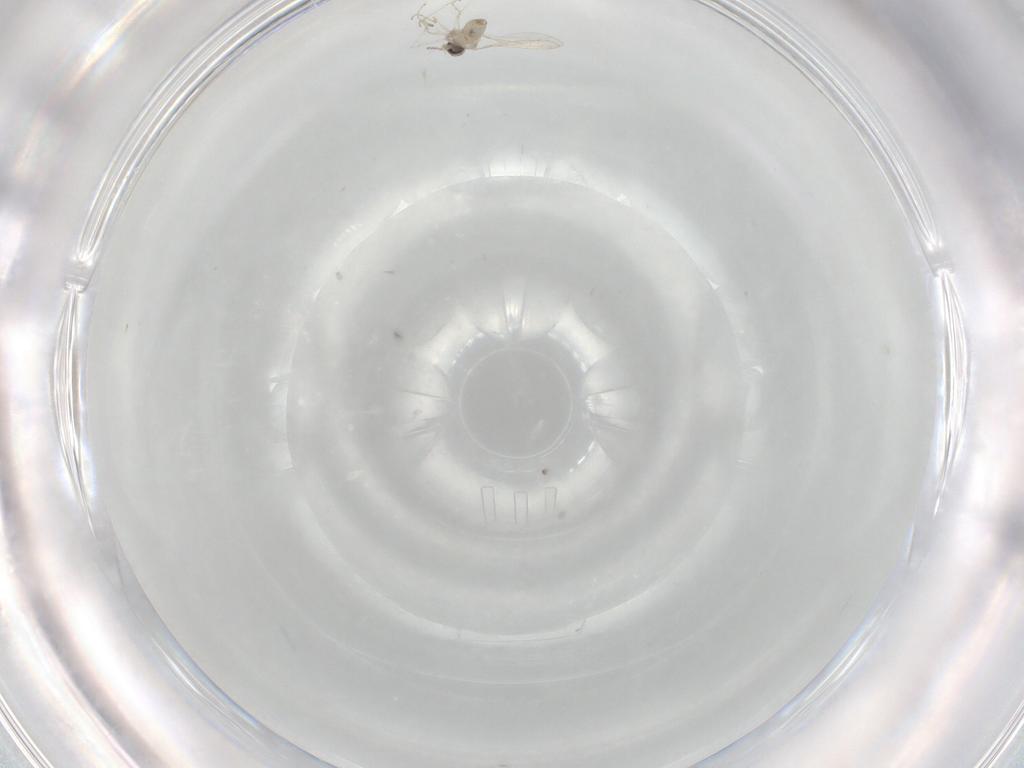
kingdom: Animalia
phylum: Arthropoda
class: Insecta
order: Diptera
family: Cecidomyiidae
